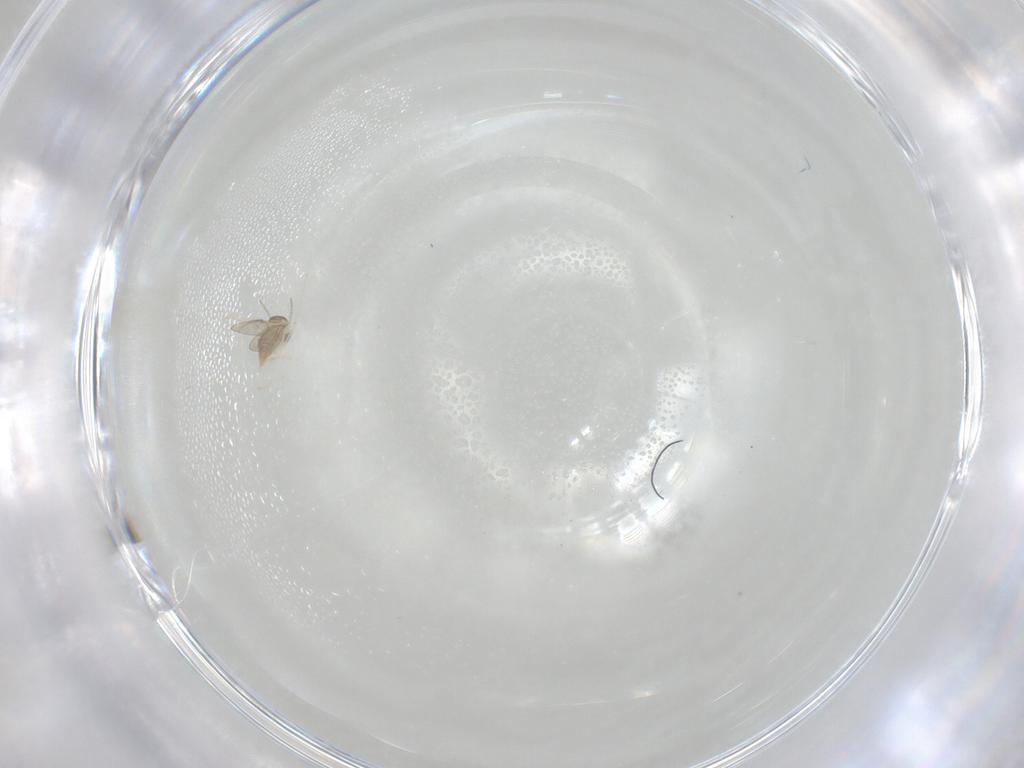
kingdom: Animalia
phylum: Arthropoda
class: Insecta
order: Diptera
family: Cecidomyiidae
